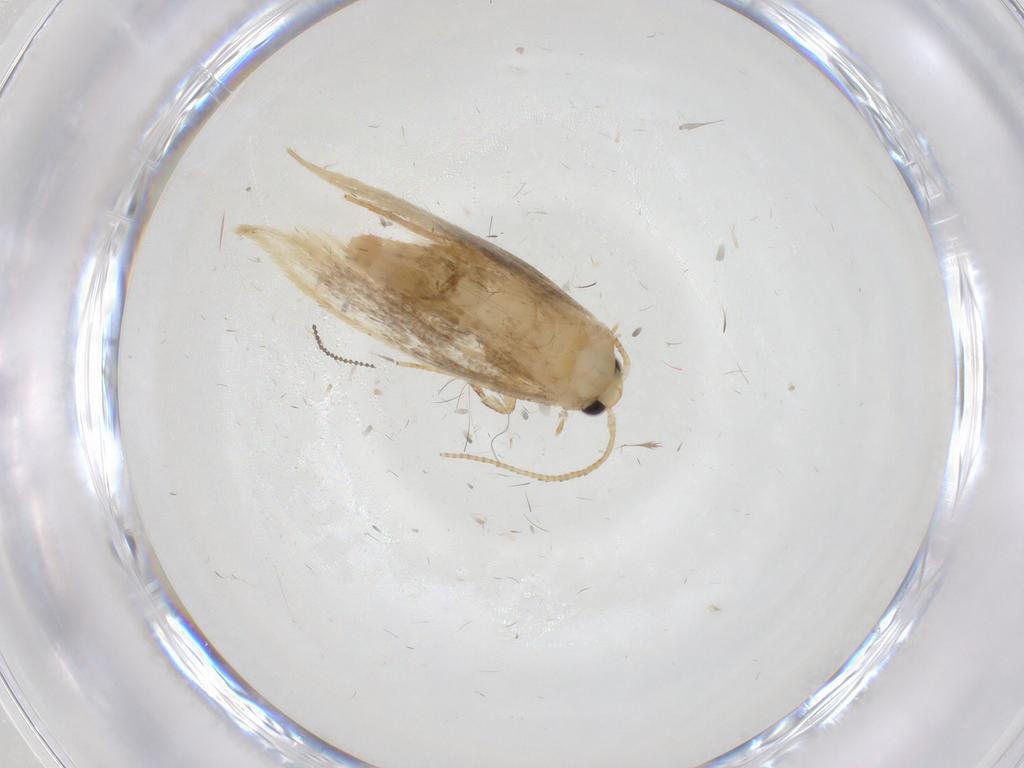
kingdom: Animalia
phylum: Arthropoda
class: Insecta
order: Lepidoptera
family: Tineidae
